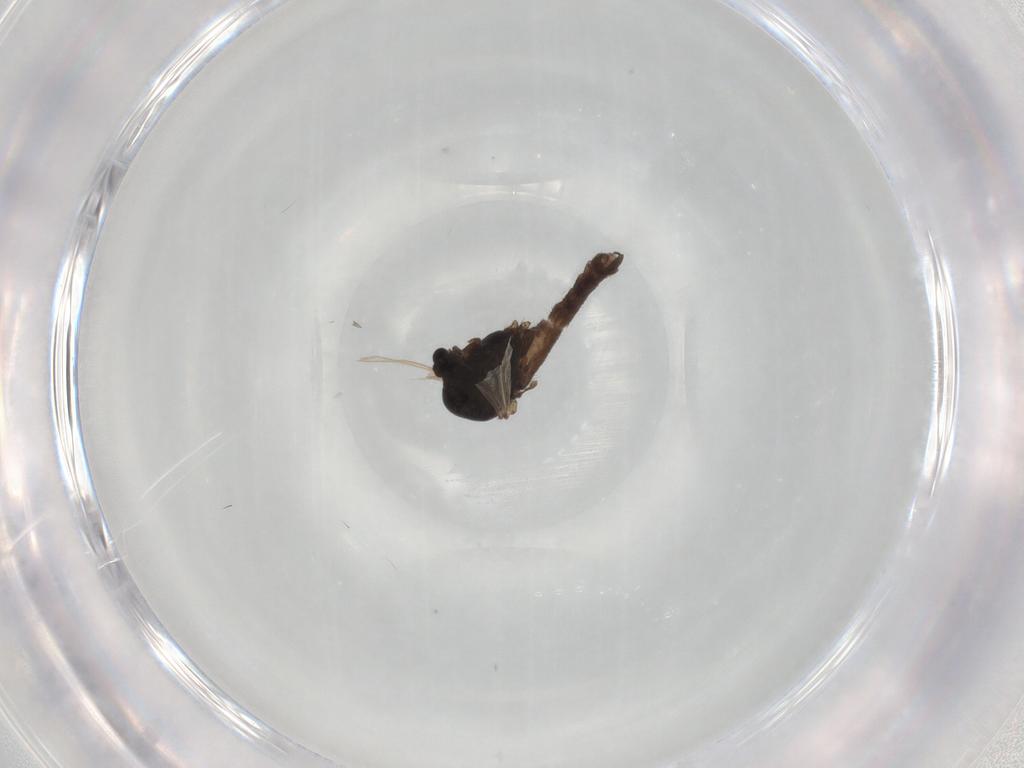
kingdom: Animalia
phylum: Arthropoda
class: Insecta
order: Diptera
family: Chironomidae
